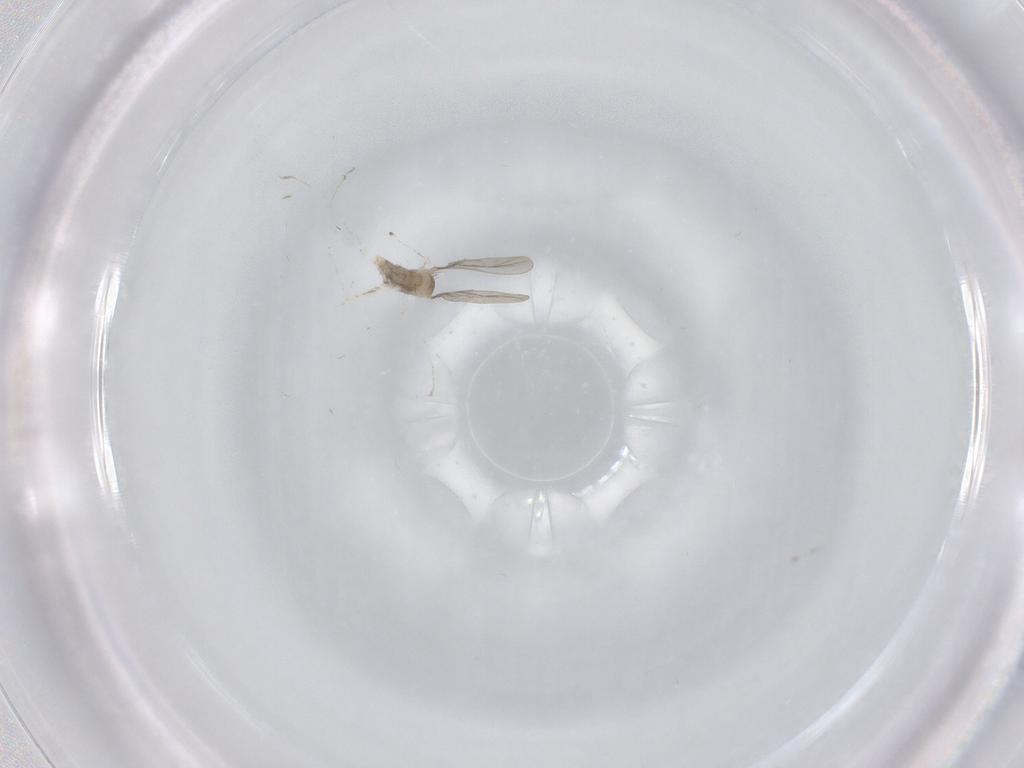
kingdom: Animalia
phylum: Arthropoda
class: Insecta
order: Diptera
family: Cecidomyiidae
